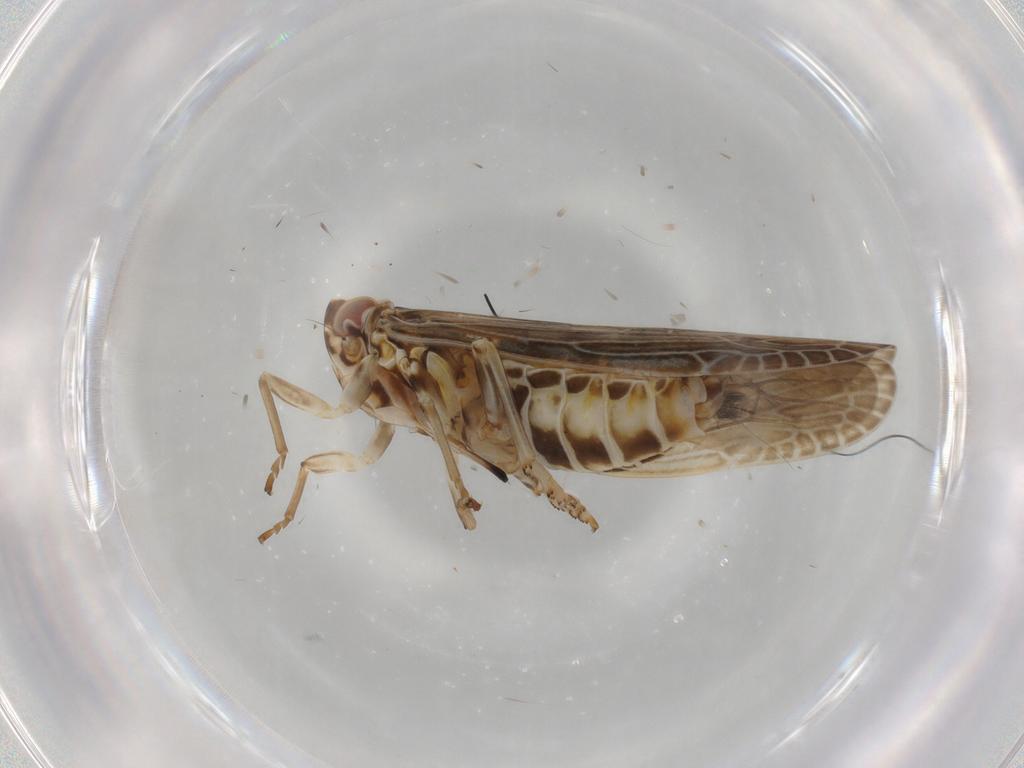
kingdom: Animalia
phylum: Arthropoda
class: Insecta
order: Hemiptera
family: Achilidae
